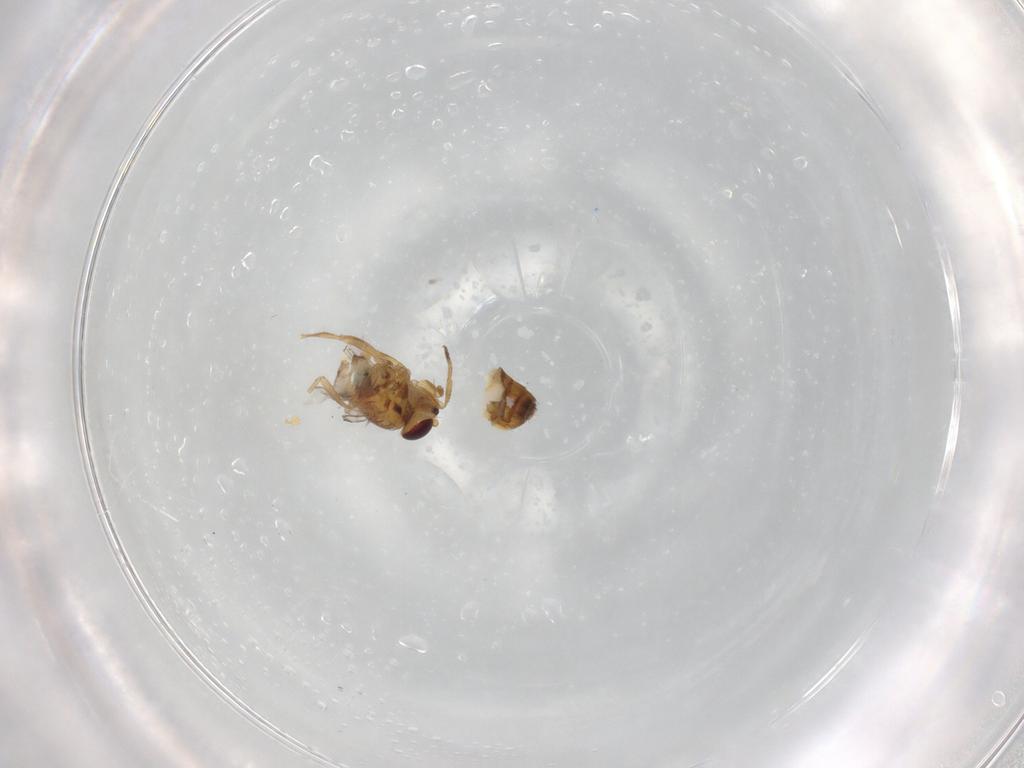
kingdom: Animalia
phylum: Arthropoda
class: Insecta
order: Diptera
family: Chloropidae
